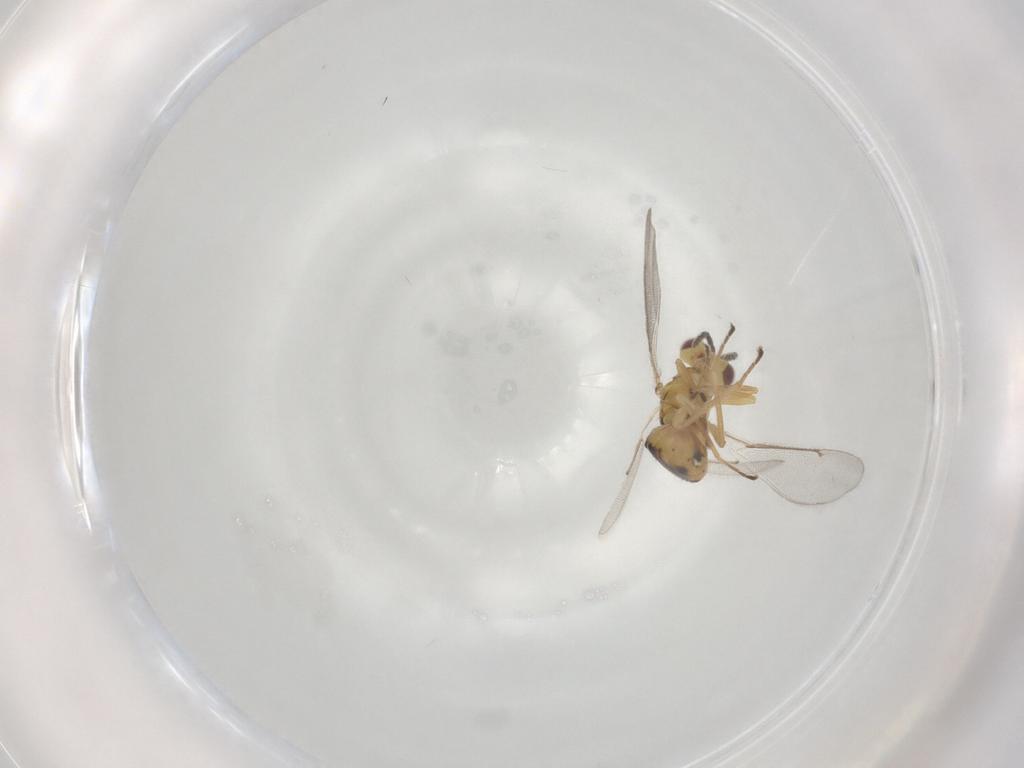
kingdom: Animalia
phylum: Arthropoda
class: Insecta
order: Hymenoptera
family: Eulophidae
